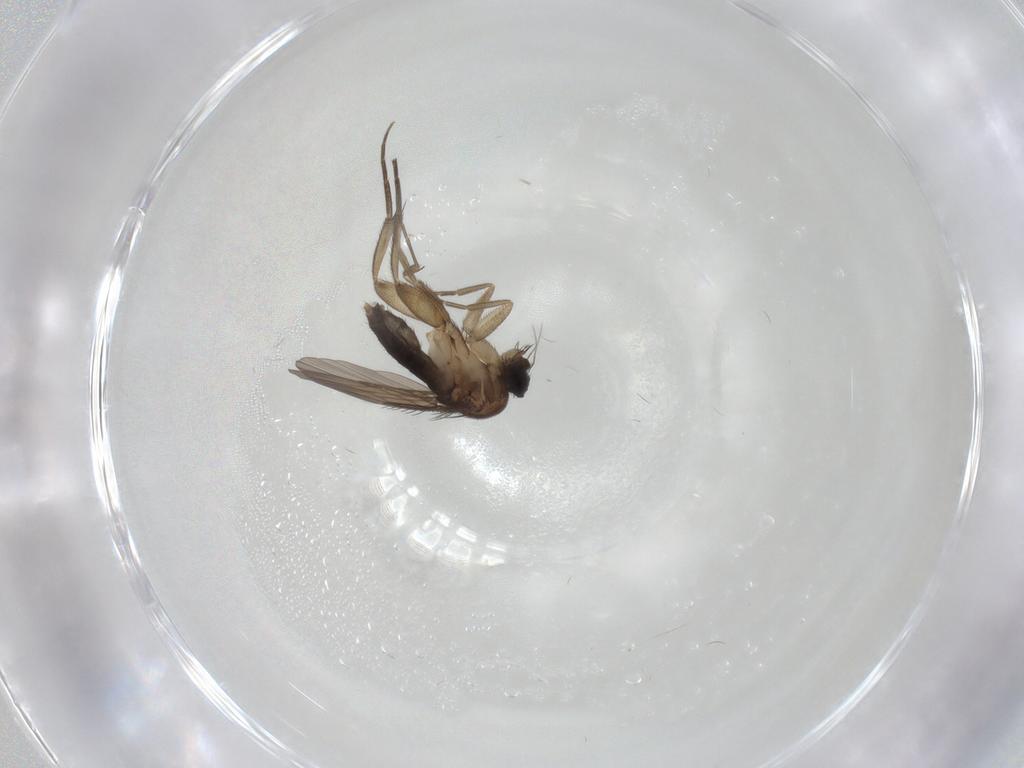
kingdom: Animalia
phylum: Arthropoda
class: Insecta
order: Diptera
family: Phoridae
